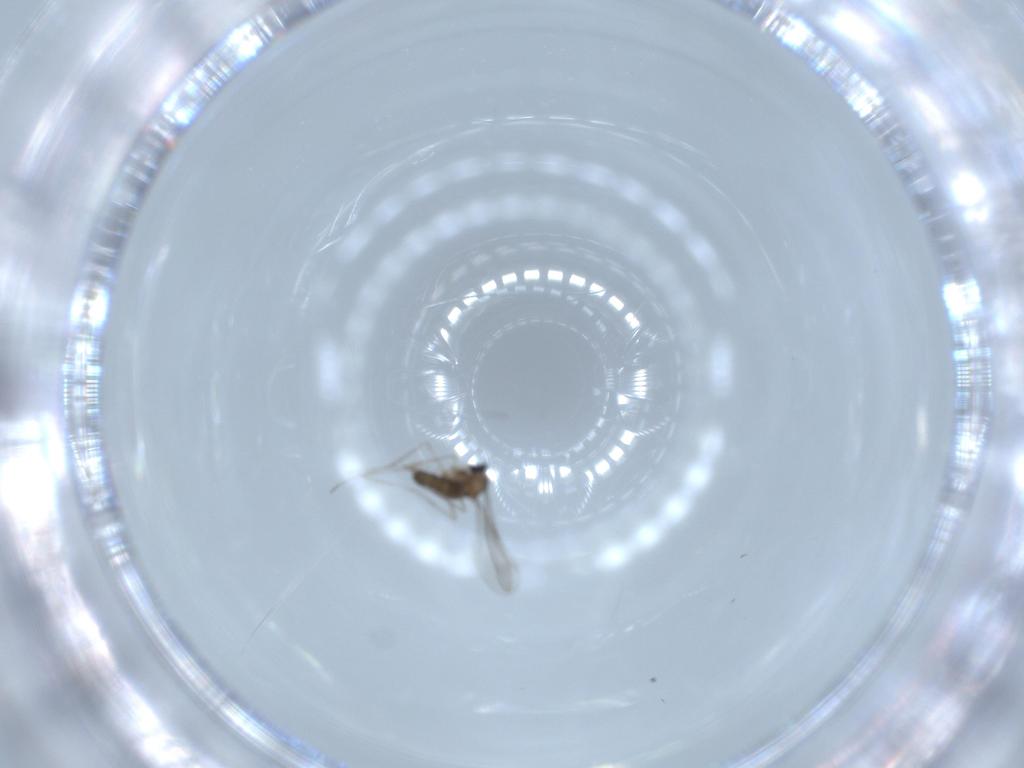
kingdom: Animalia
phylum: Arthropoda
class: Insecta
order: Diptera
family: Cecidomyiidae
